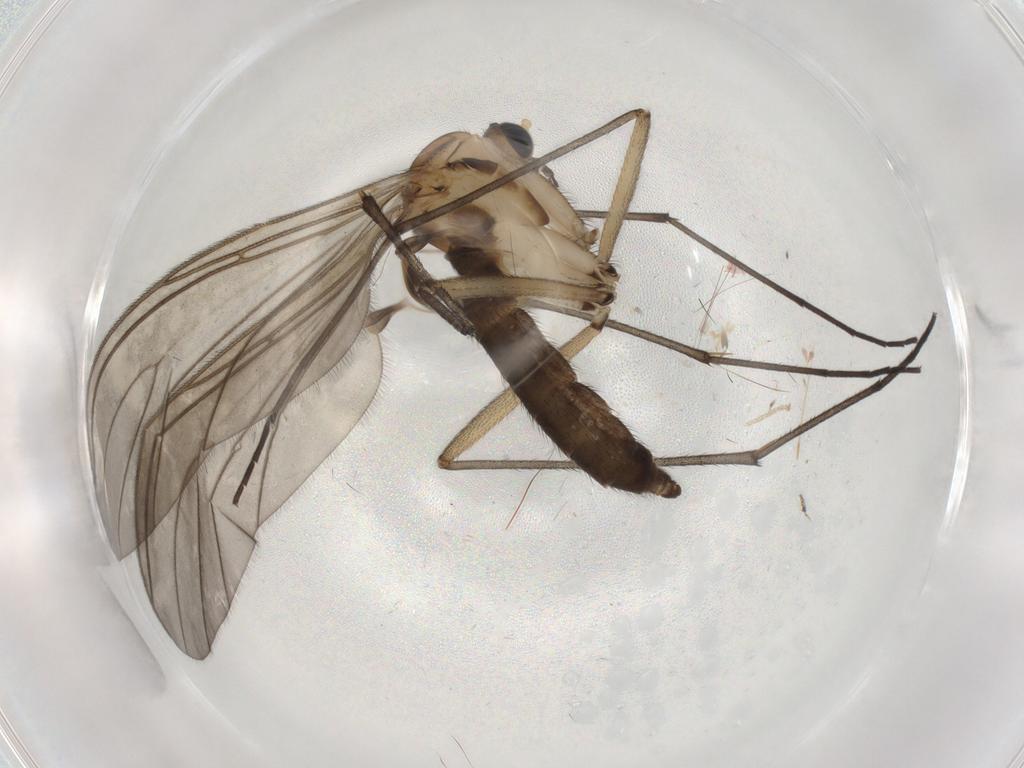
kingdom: Animalia
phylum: Arthropoda
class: Insecta
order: Diptera
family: Sciaridae
